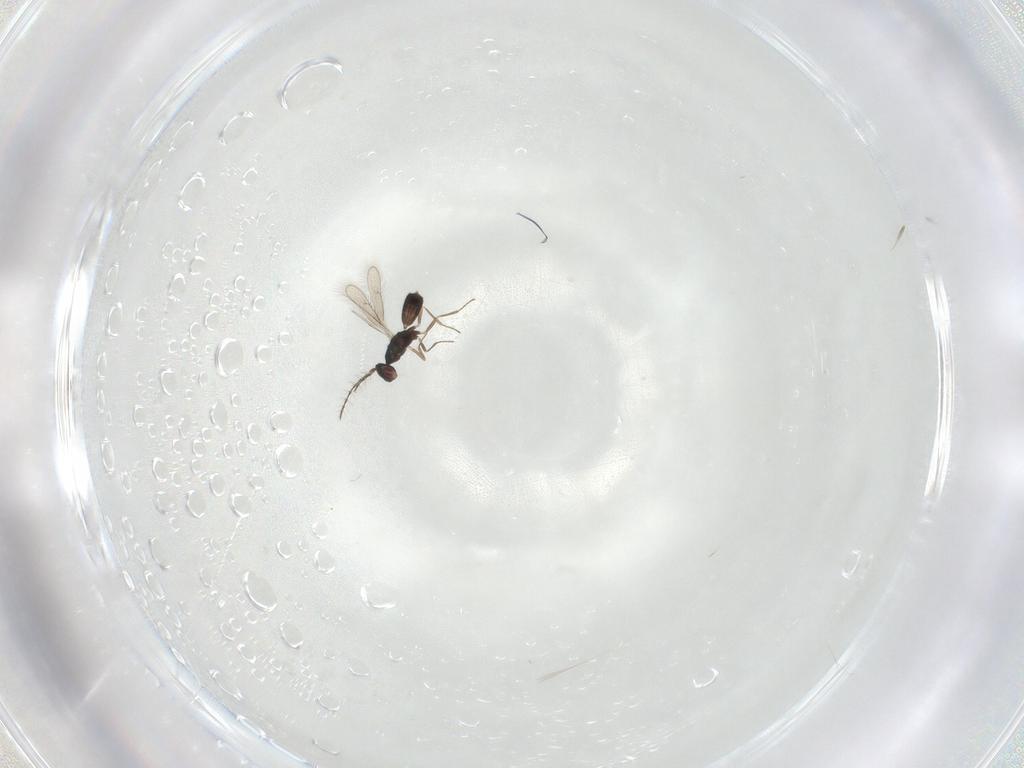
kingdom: Animalia
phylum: Arthropoda
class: Insecta
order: Hymenoptera
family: Pteromalidae
